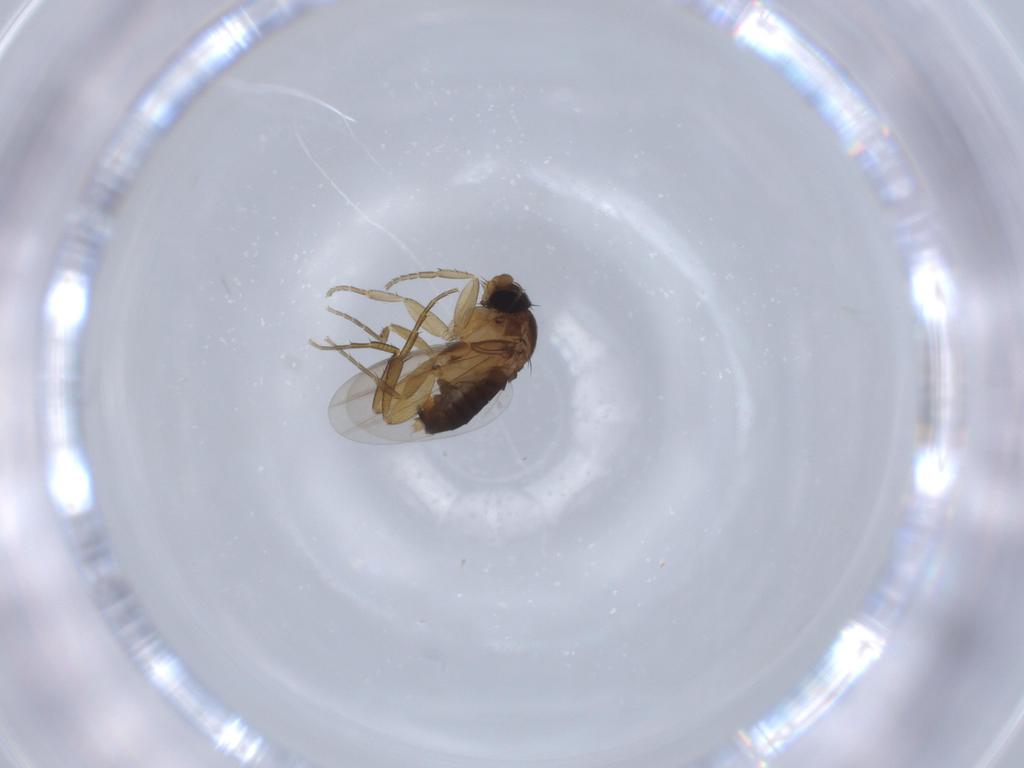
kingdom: Animalia
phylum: Arthropoda
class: Insecta
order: Diptera
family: Phoridae
